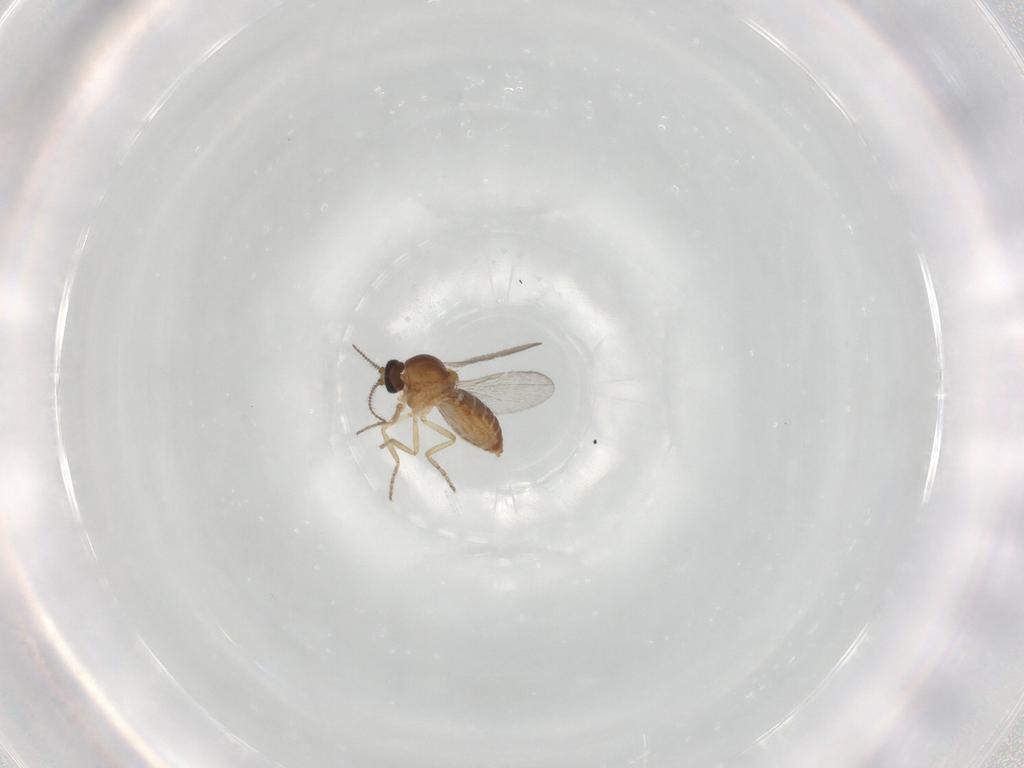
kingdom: Animalia
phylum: Arthropoda
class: Insecta
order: Diptera
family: Ceratopogonidae
